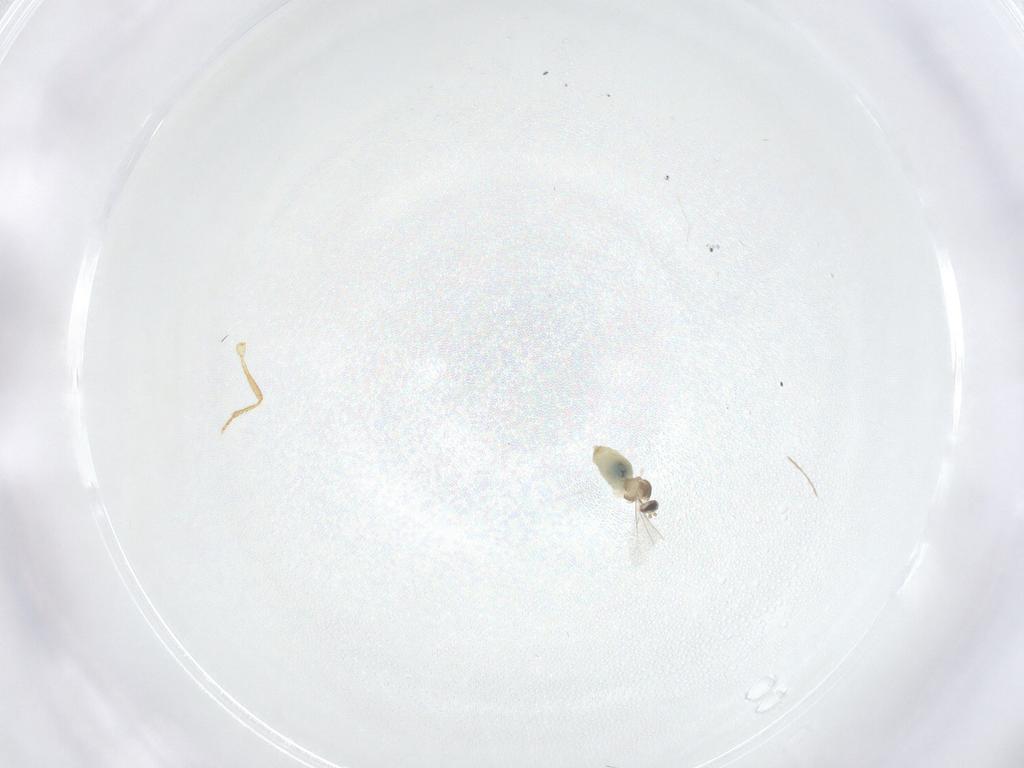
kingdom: Animalia
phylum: Arthropoda
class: Insecta
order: Diptera
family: Cecidomyiidae
